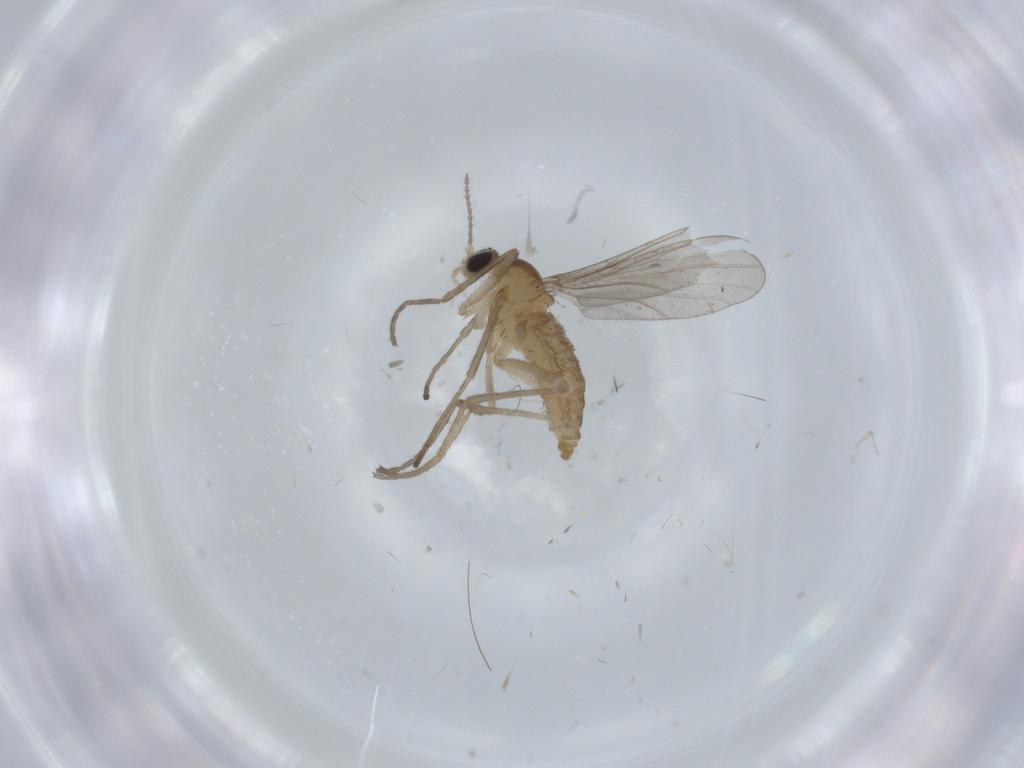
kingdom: Animalia
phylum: Arthropoda
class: Insecta
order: Diptera
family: Cecidomyiidae
